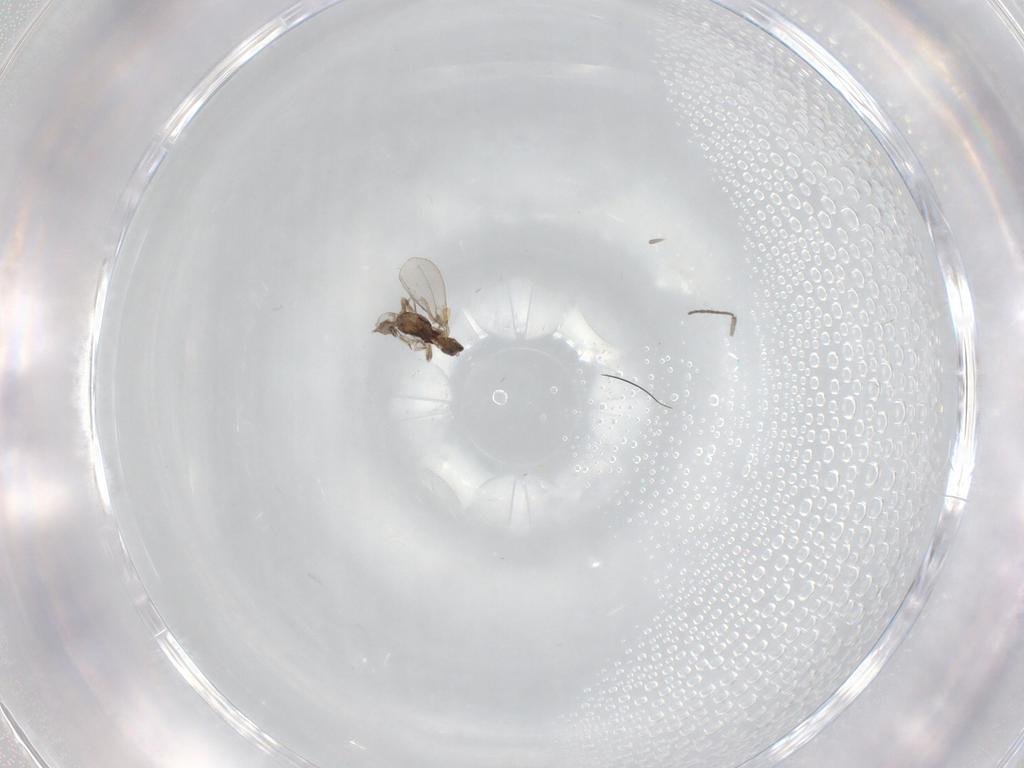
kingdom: Animalia
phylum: Arthropoda
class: Insecta
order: Diptera
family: Cecidomyiidae
